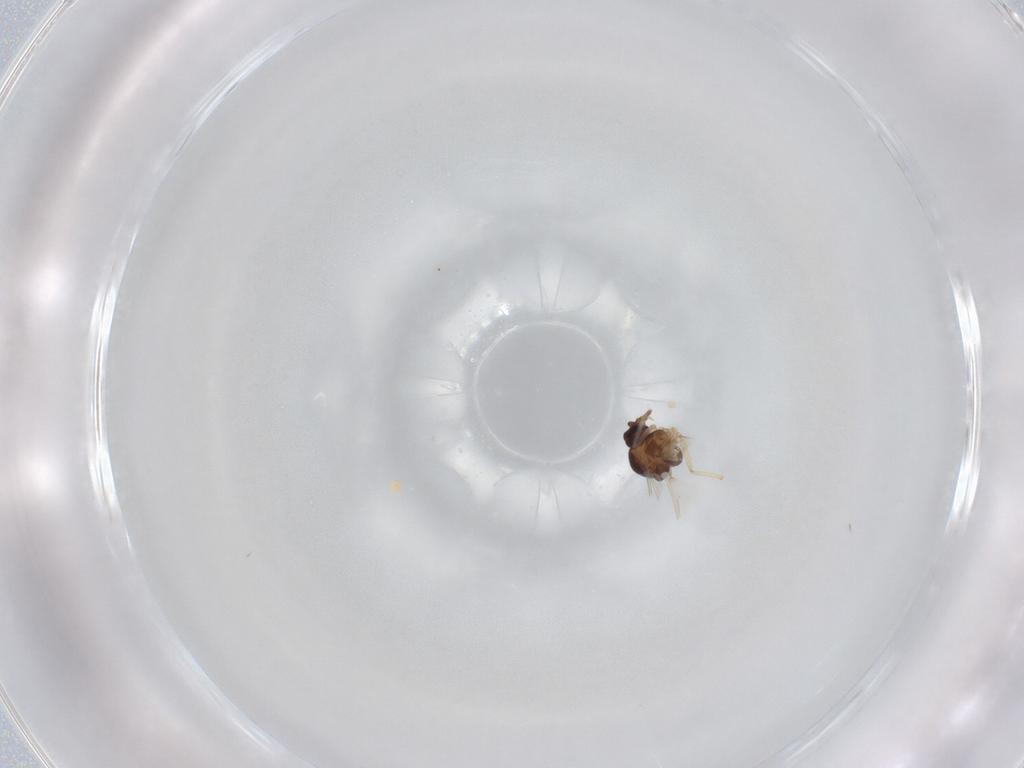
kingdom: Animalia
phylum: Arthropoda
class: Insecta
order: Diptera
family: Ceratopogonidae
